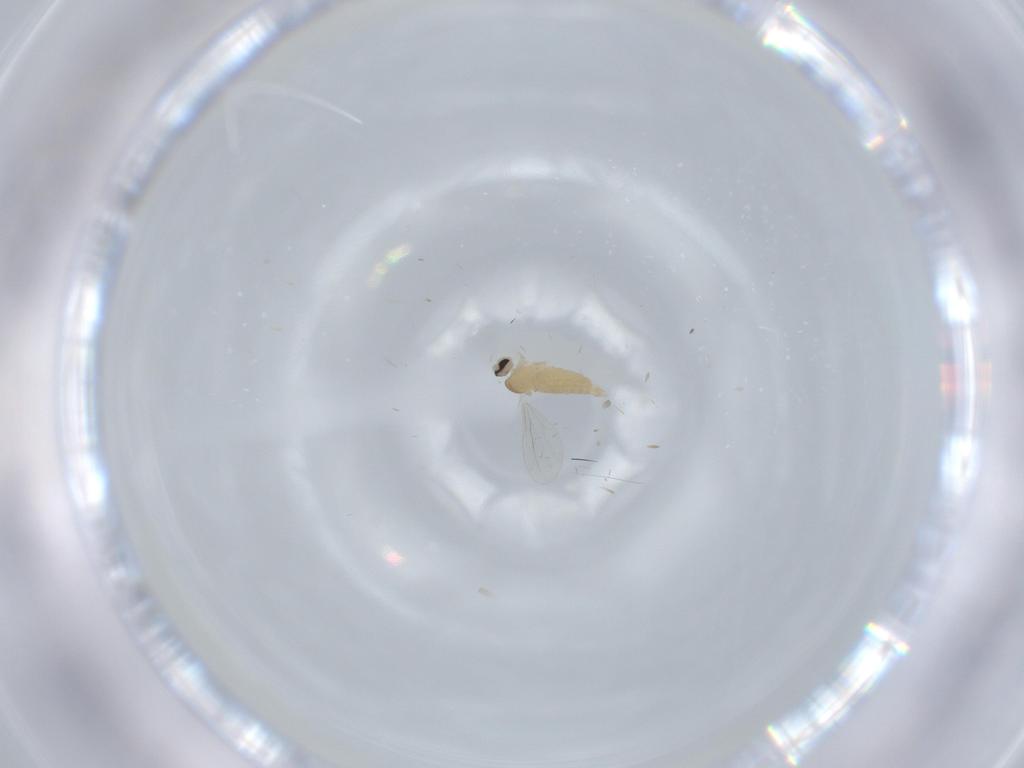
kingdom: Animalia
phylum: Arthropoda
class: Insecta
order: Diptera
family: Cecidomyiidae
